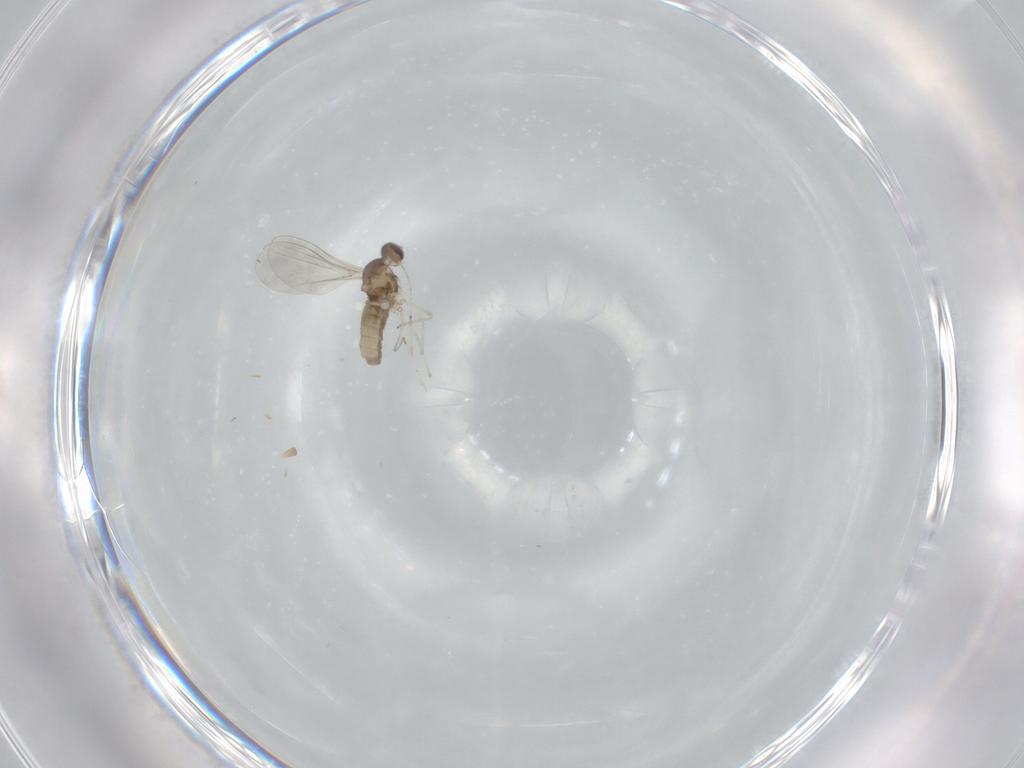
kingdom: Animalia
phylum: Arthropoda
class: Insecta
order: Diptera
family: Cecidomyiidae
